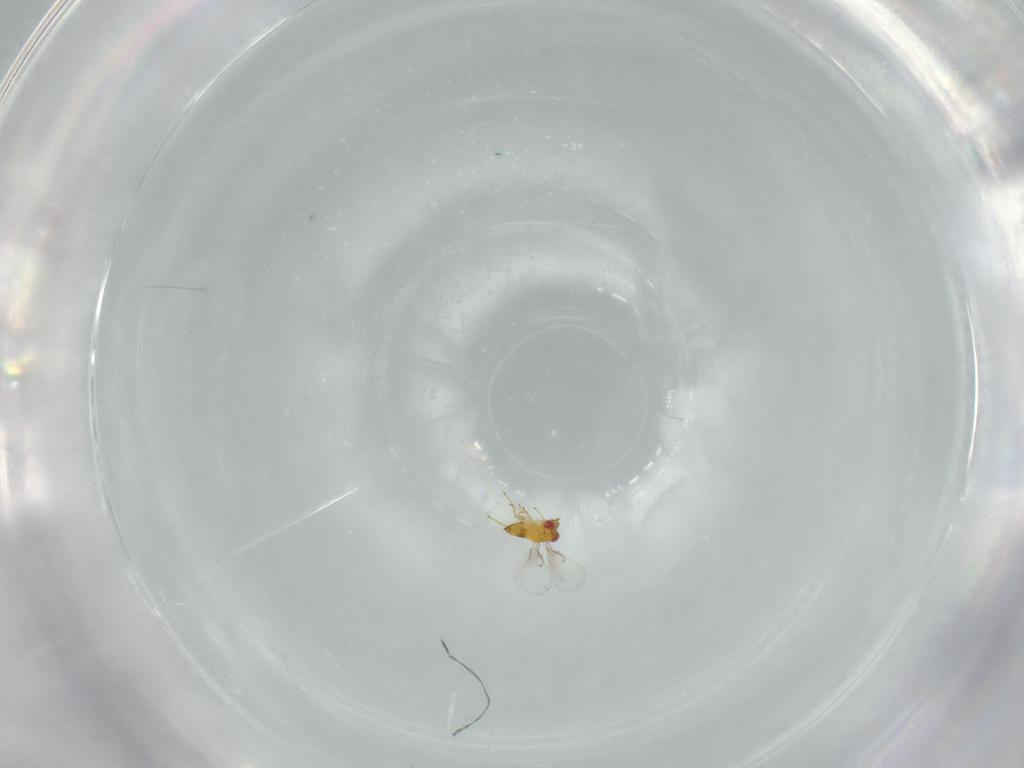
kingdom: Animalia
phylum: Arthropoda
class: Insecta
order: Hymenoptera
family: Trichogrammatidae
